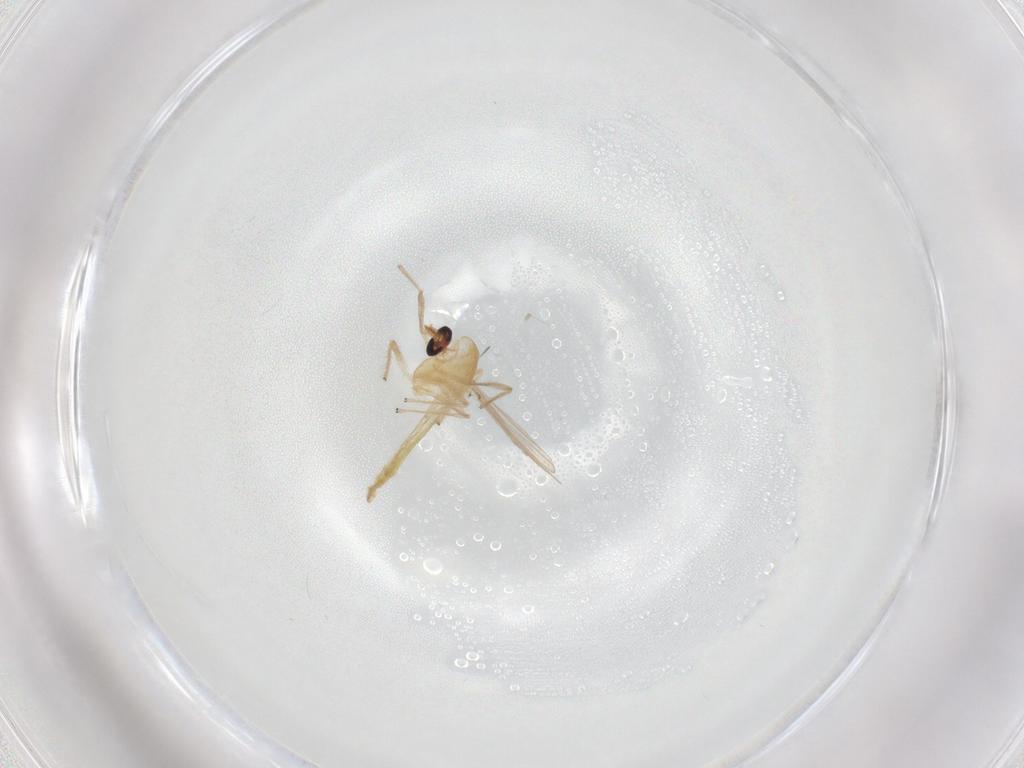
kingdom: Animalia
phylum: Arthropoda
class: Insecta
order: Diptera
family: Chironomidae
